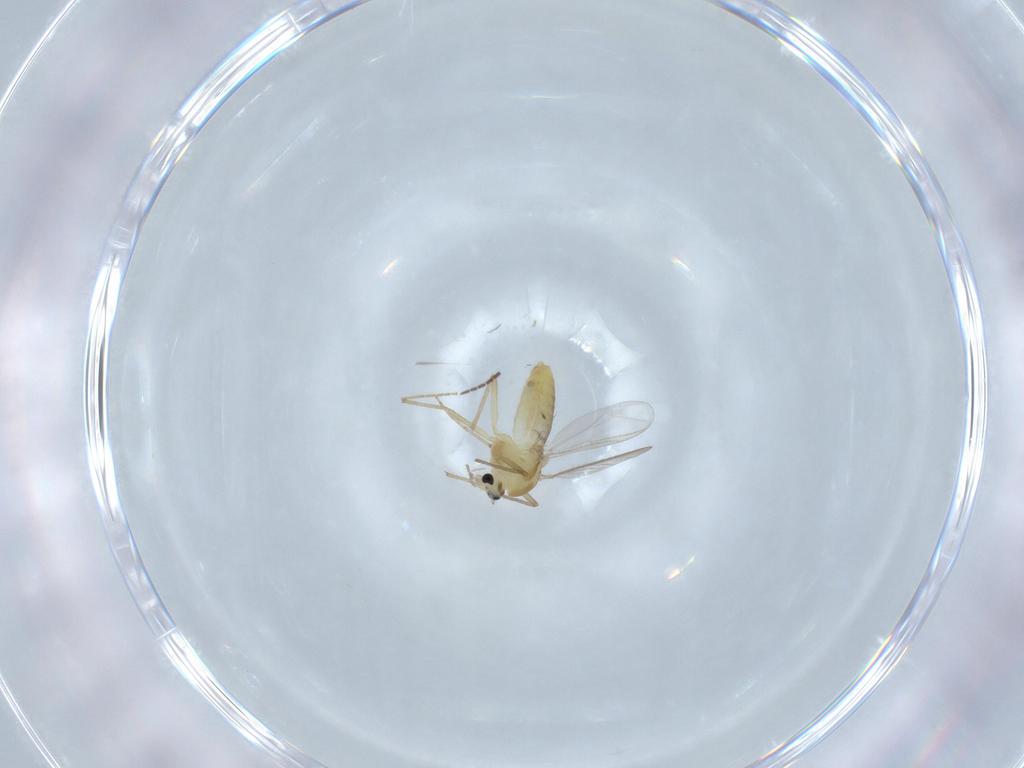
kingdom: Animalia
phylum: Arthropoda
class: Insecta
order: Diptera
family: Chironomidae
